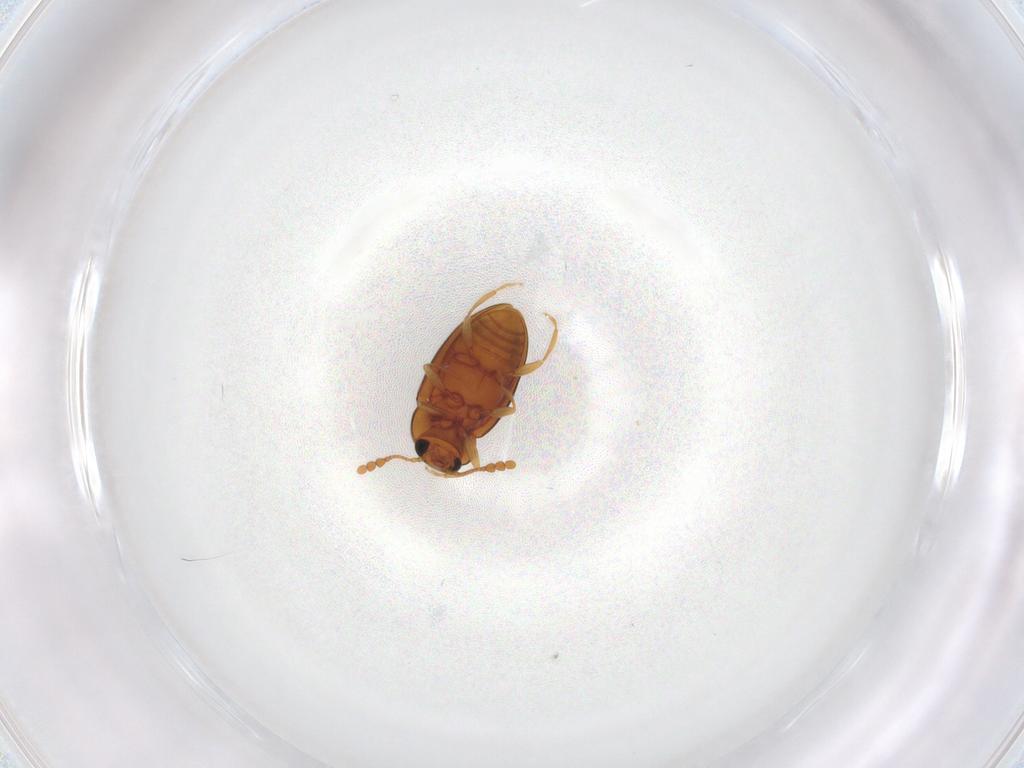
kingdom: Animalia
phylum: Arthropoda
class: Insecta
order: Coleoptera
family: Erotylidae
